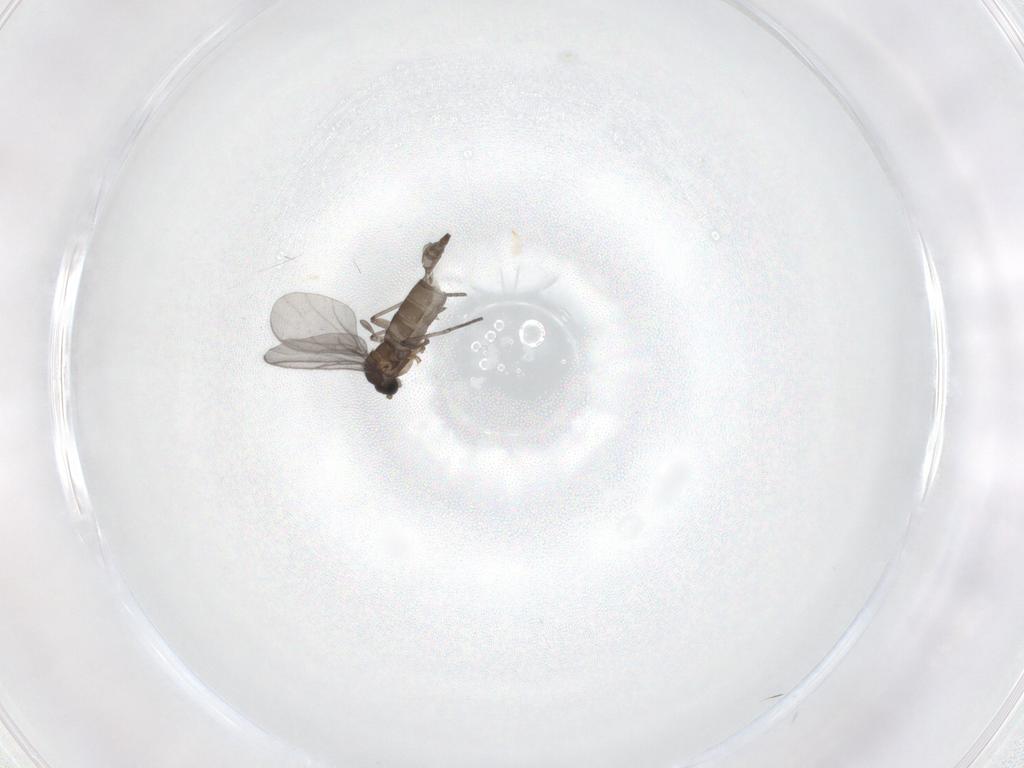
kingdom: Animalia
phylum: Arthropoda
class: Insecta
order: Diptera
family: Sciaridae
